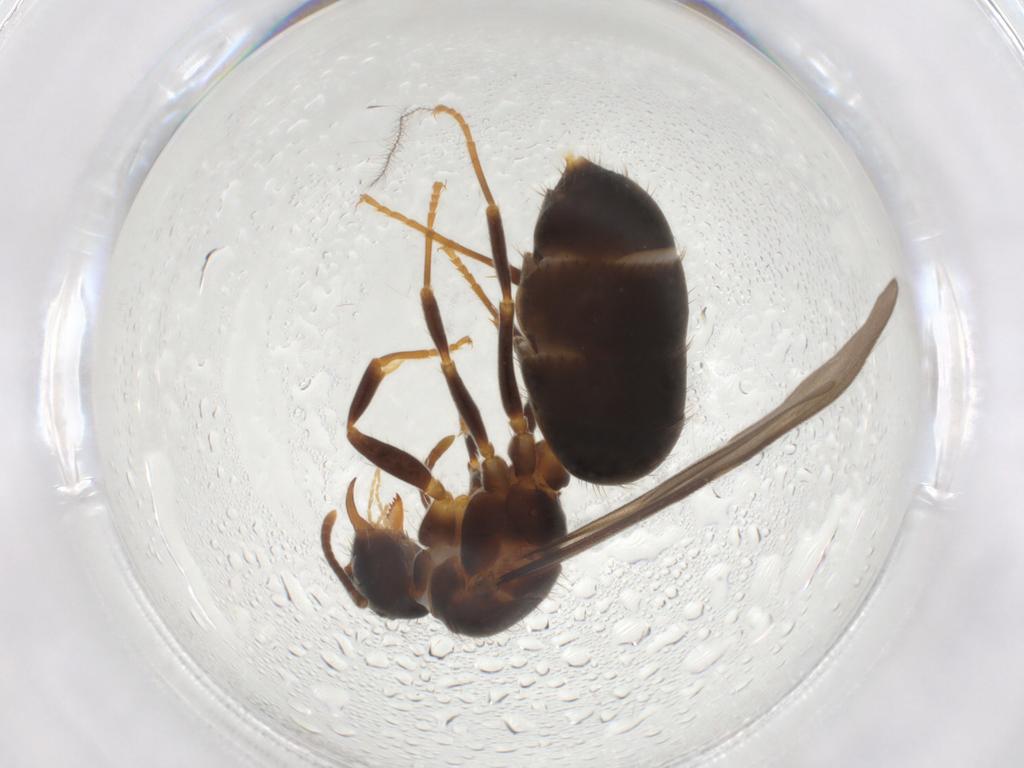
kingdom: Animalia
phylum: Arthropoda
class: Insecta
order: Hymenoptera
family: Formicidae
